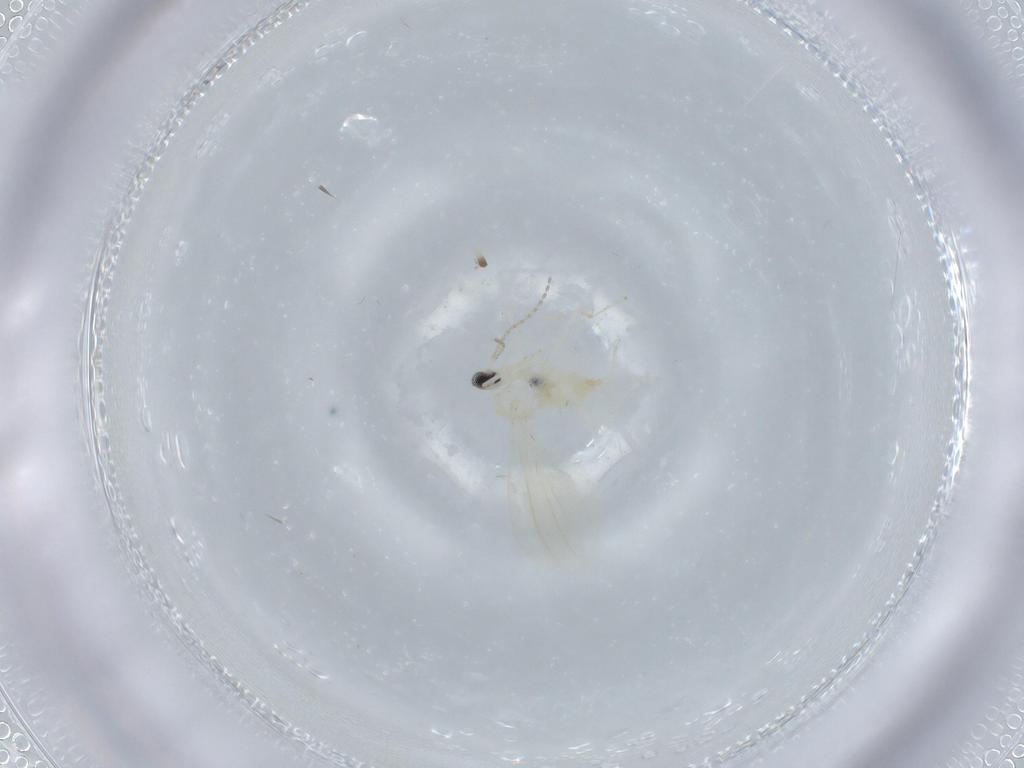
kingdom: Animalia
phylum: Arthropoda
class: Insecta
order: Diptera
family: Cecidomyiidae
